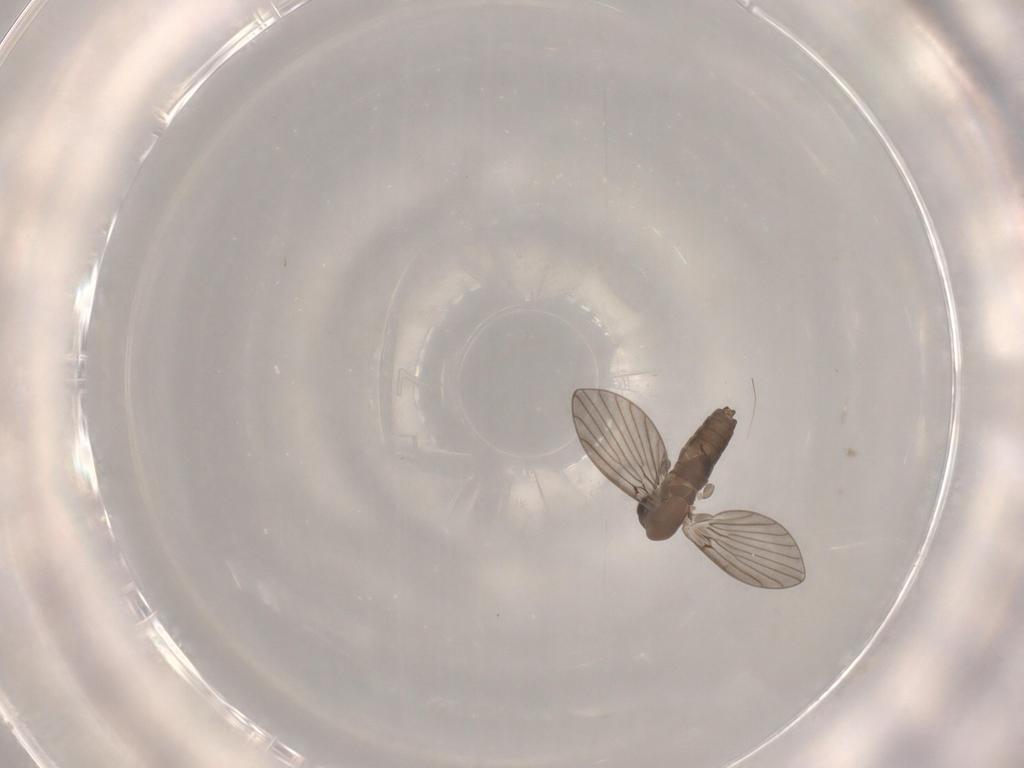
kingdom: Animalia
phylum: Arthropoda
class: Insecta
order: Diptera
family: Psychodidae
